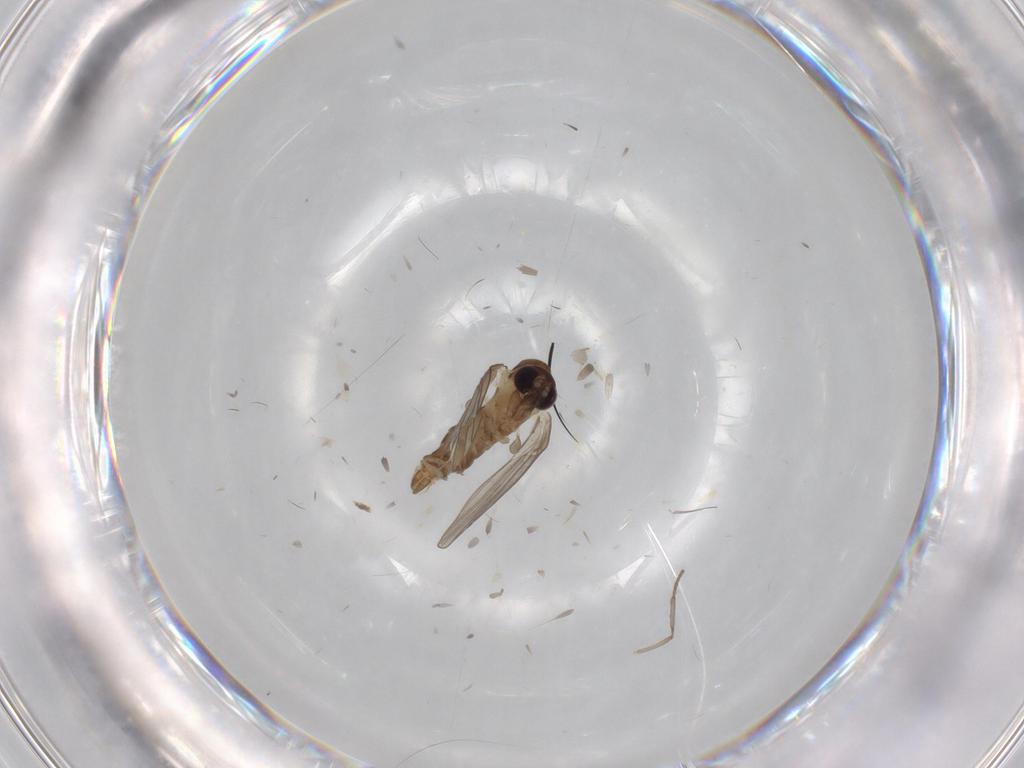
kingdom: Animalia
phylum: Arthropoda
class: Insecta
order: Diptera
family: Psychodidae
